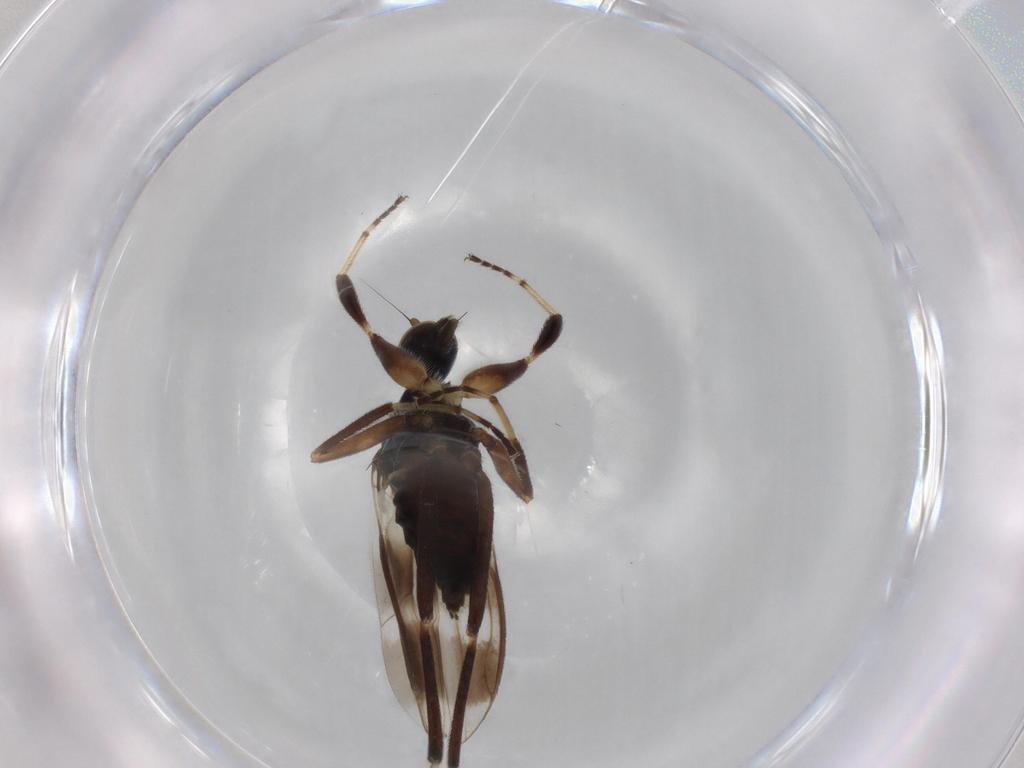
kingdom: Animalia
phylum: Arthropoda
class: Insecta
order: Diptera
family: Hybotidae
